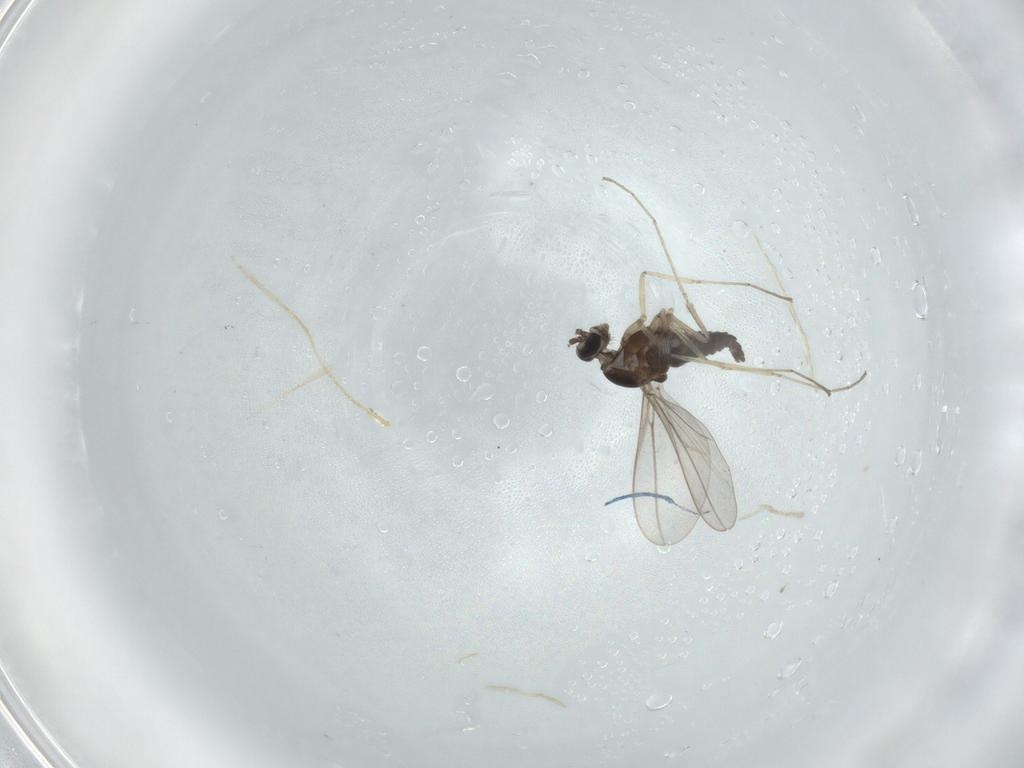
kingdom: Animalia
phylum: Arthropoda
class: Insecta
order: Diptera
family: Cecidomyiidae
